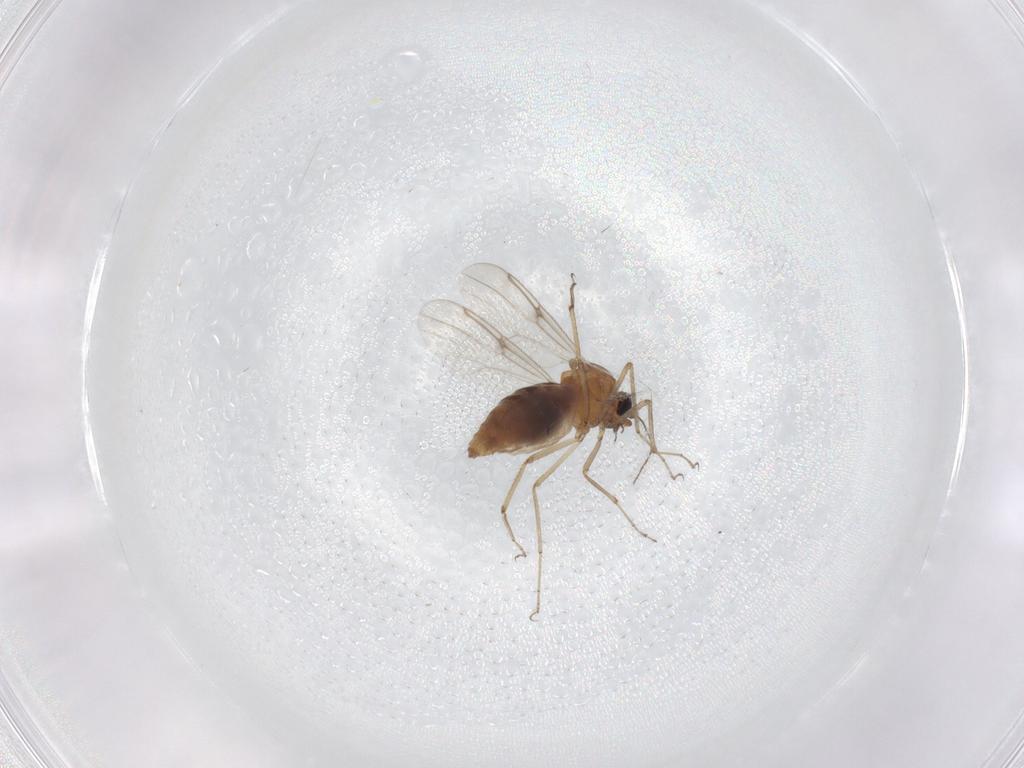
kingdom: Animalia
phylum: Arthropoda
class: Insecta
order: Diptera
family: Ceratopogonidae
